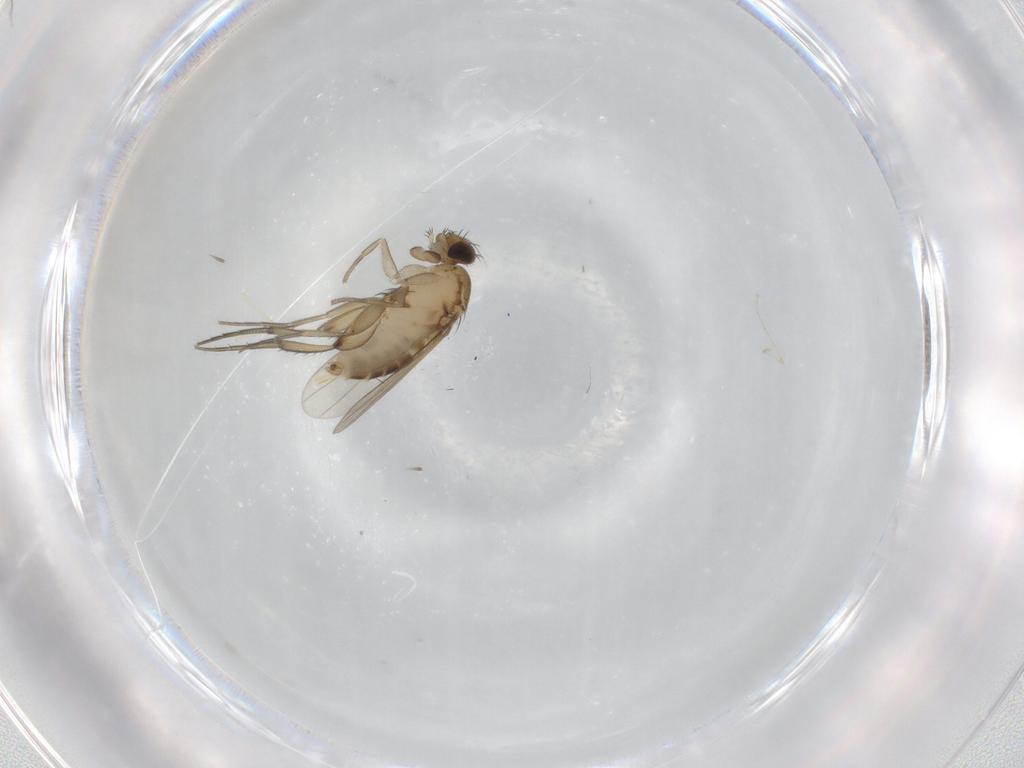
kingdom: Animalia
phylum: Arthropoda
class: Insecta
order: Diptera
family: Phoridae
